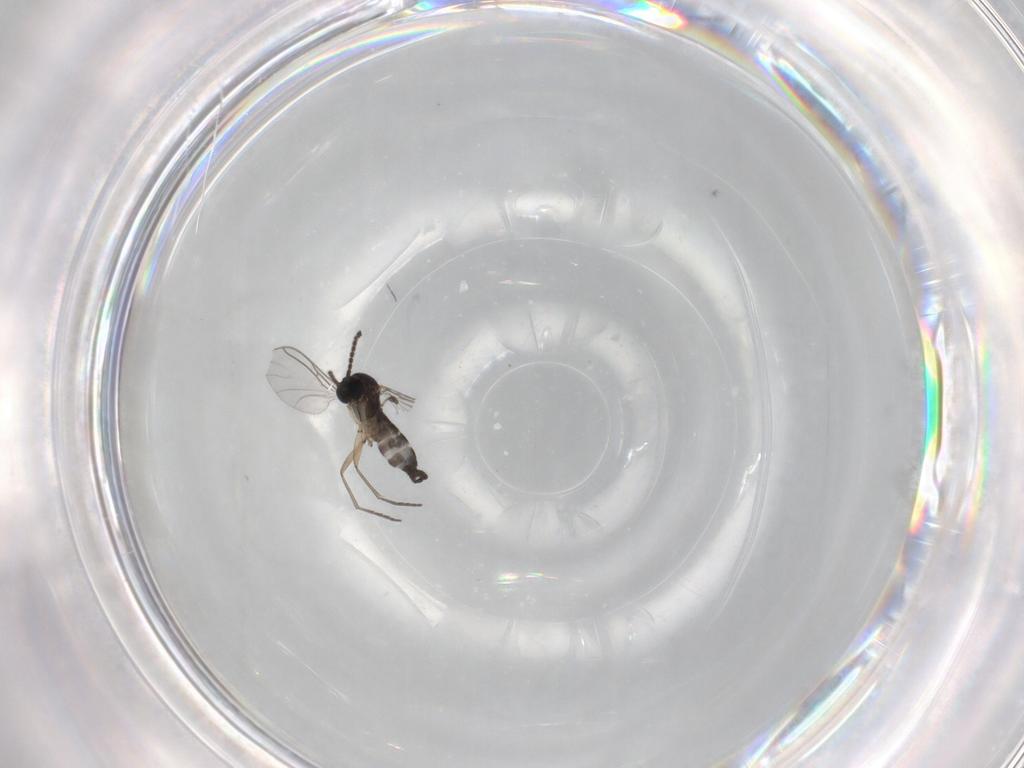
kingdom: Animalia
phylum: Arthropoda
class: Insecta
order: Diptera
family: Sciaridae
